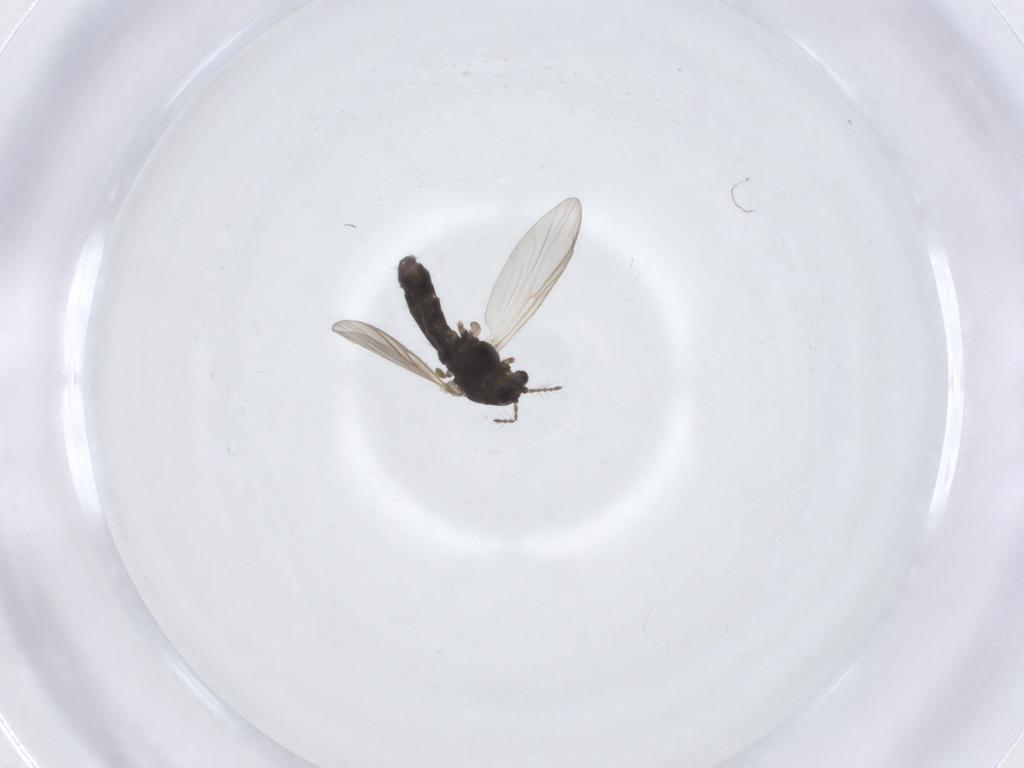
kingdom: Animalia
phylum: Arthropoda
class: Insecta
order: Diptera
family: Chironomidae
